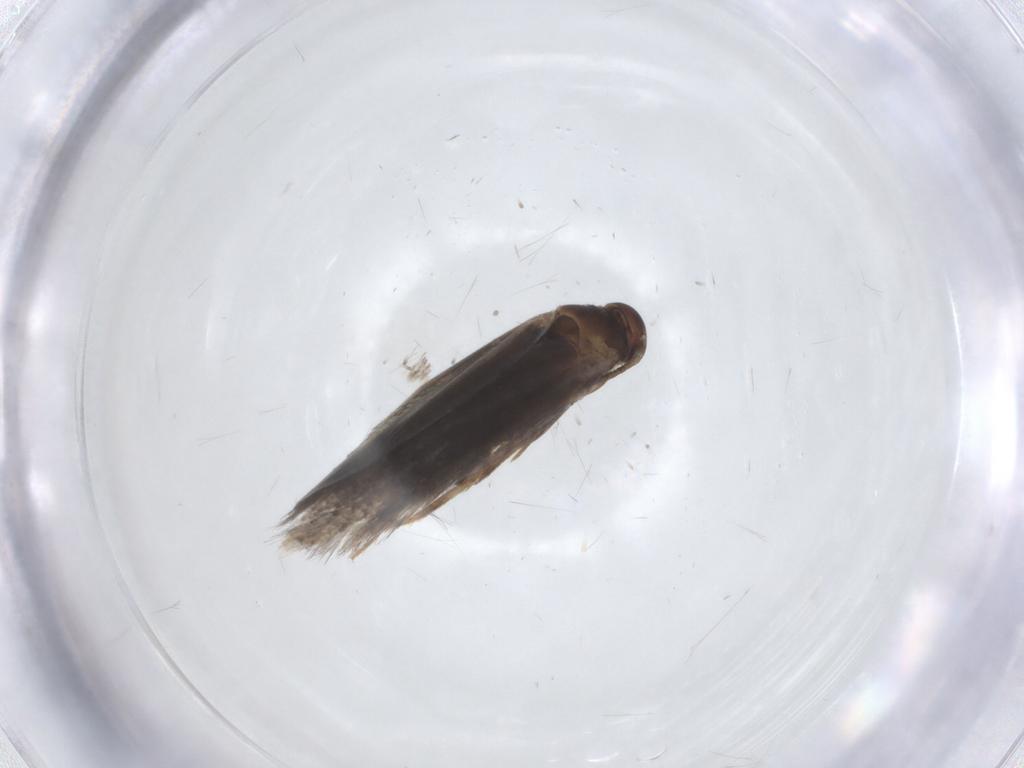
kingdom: Animalia
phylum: Arthropoda
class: Insecta
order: Lepidoptera
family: Elachistidae
